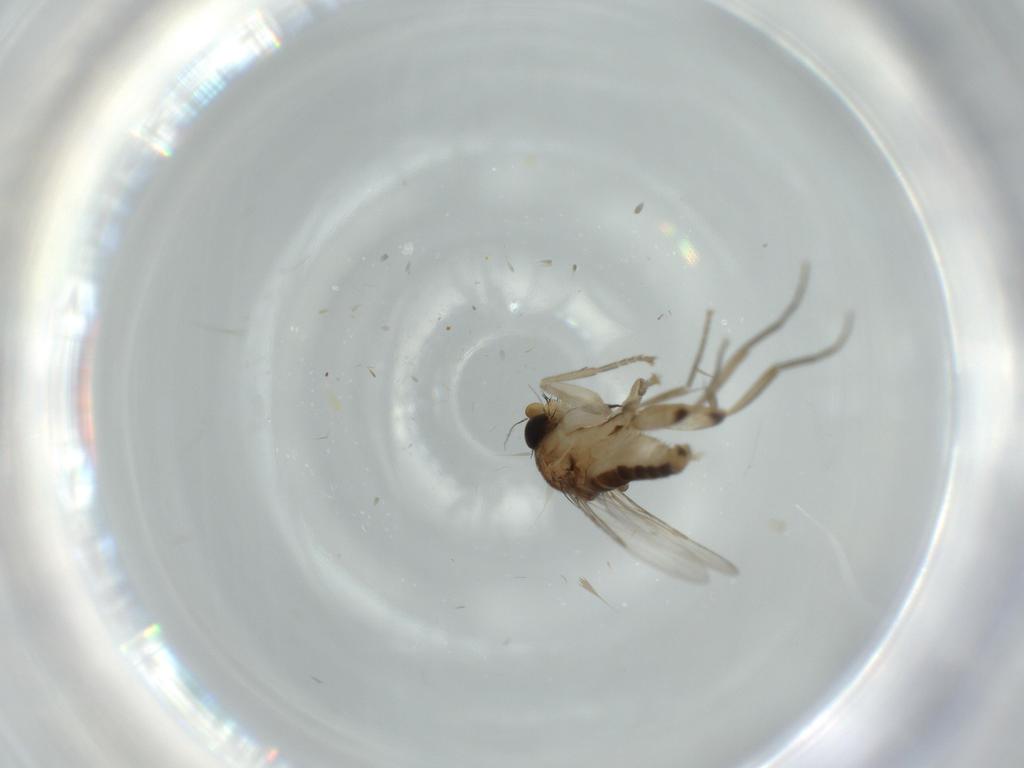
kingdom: Animalia
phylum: Arthropoda
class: Insecta
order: Diptera
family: Phoridae
